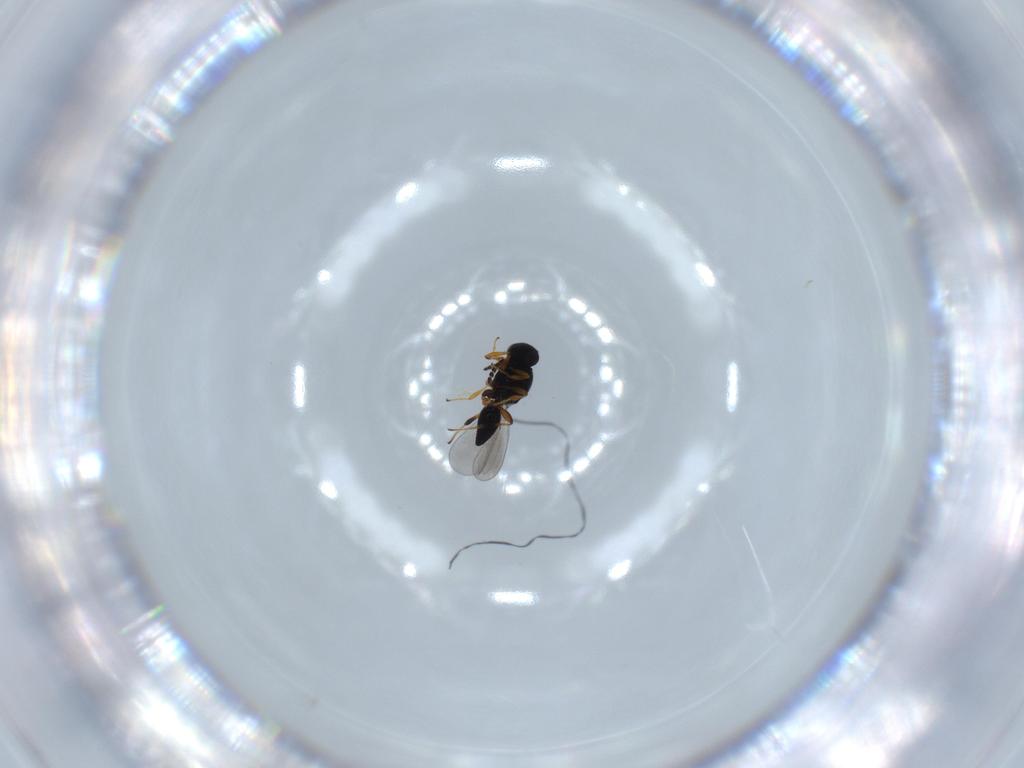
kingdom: Animalia
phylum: Arthropoda
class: Insecta
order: Hymenoptera
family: Platygastridae
